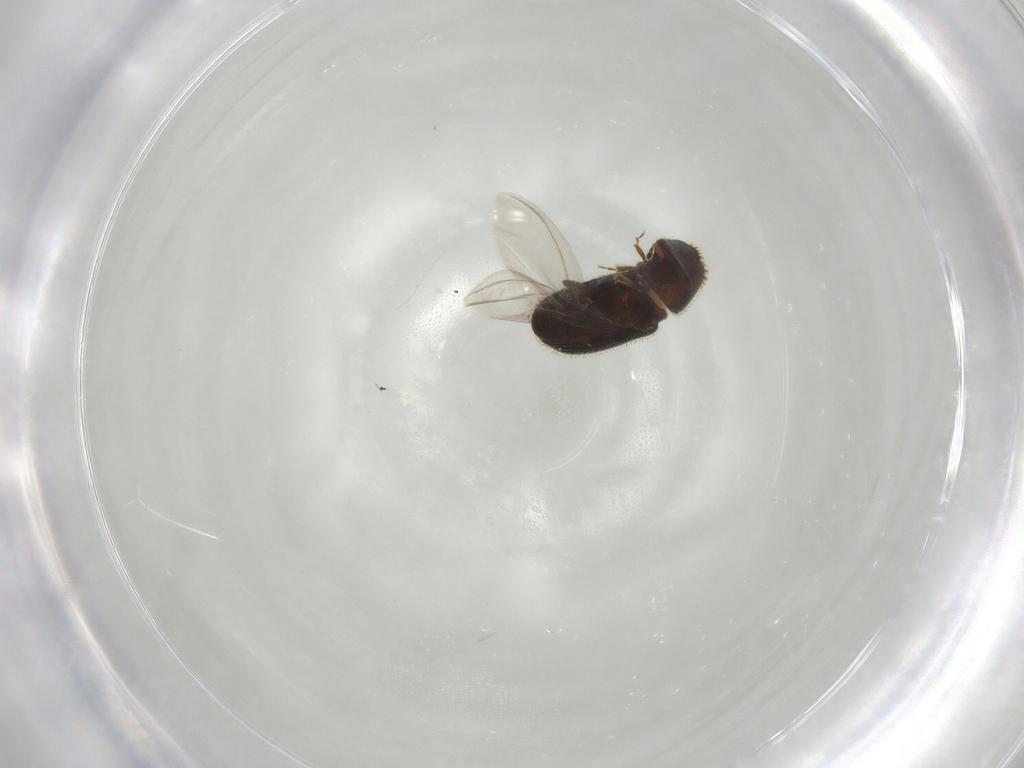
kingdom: Animalia
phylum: Arthropoda
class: Insecta
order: Coleoptera
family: Curculionidae
